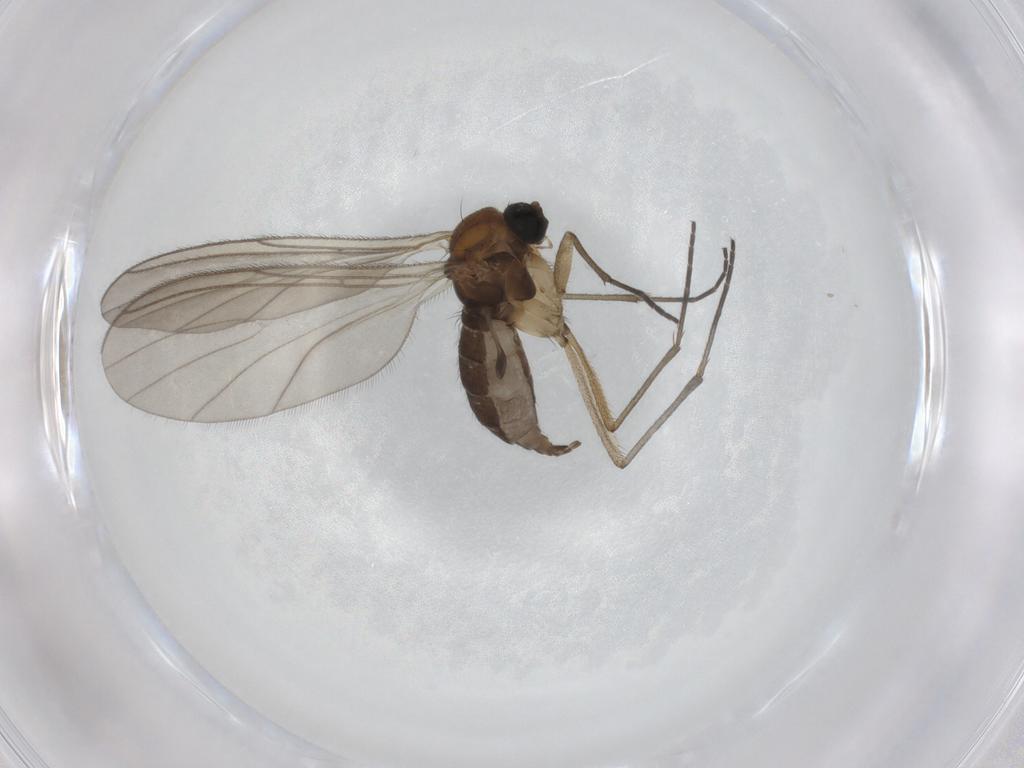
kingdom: Animalia
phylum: Arthropoda
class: Insecta
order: Diptera
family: Sciaridae
